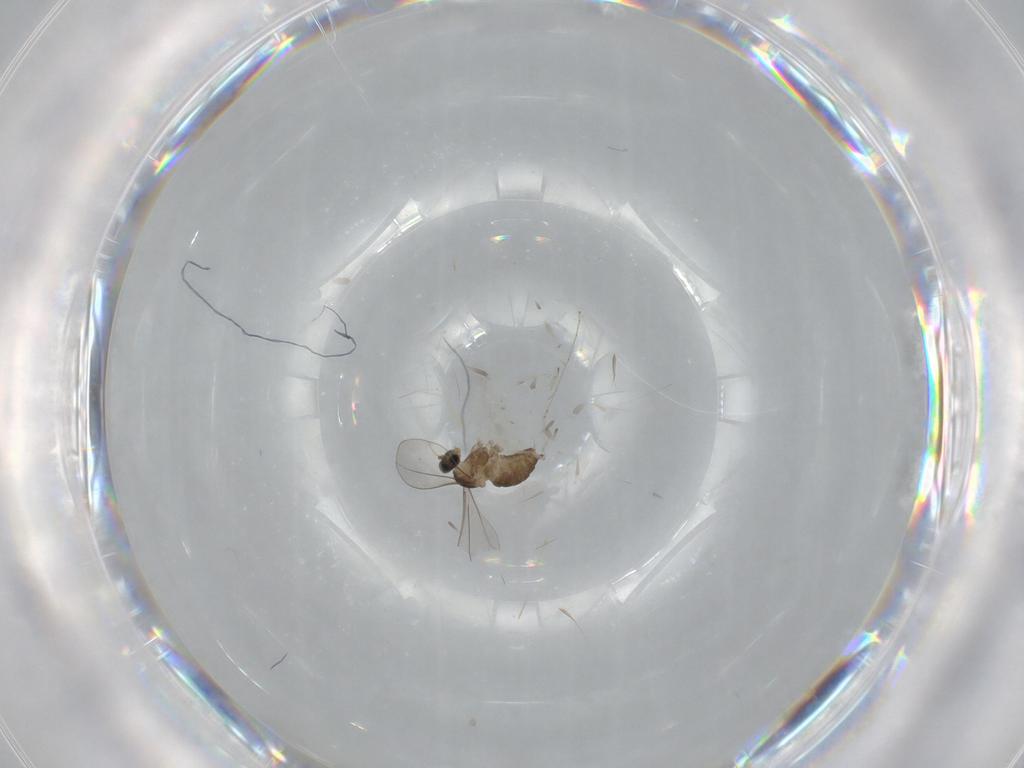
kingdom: Animalia
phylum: Arthropoda
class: Insecta
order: Diptera
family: Cecidomyiidae
